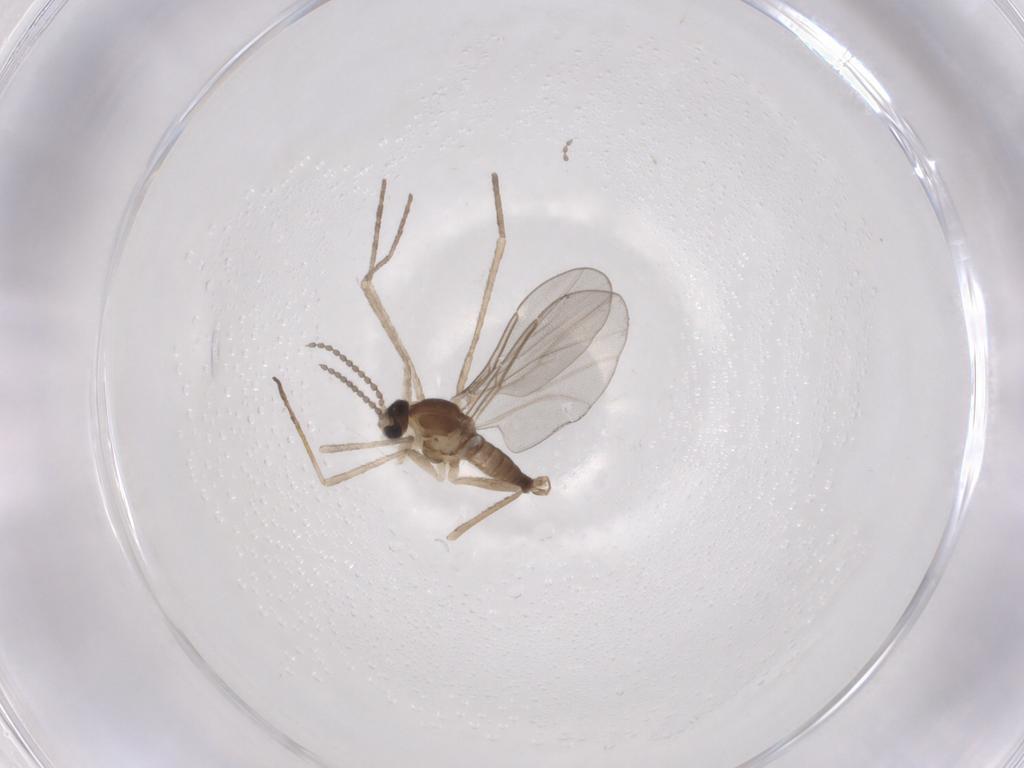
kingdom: Animalia
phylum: Arthropoda
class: Insecta
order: Diptera
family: Cecidomyiidae
